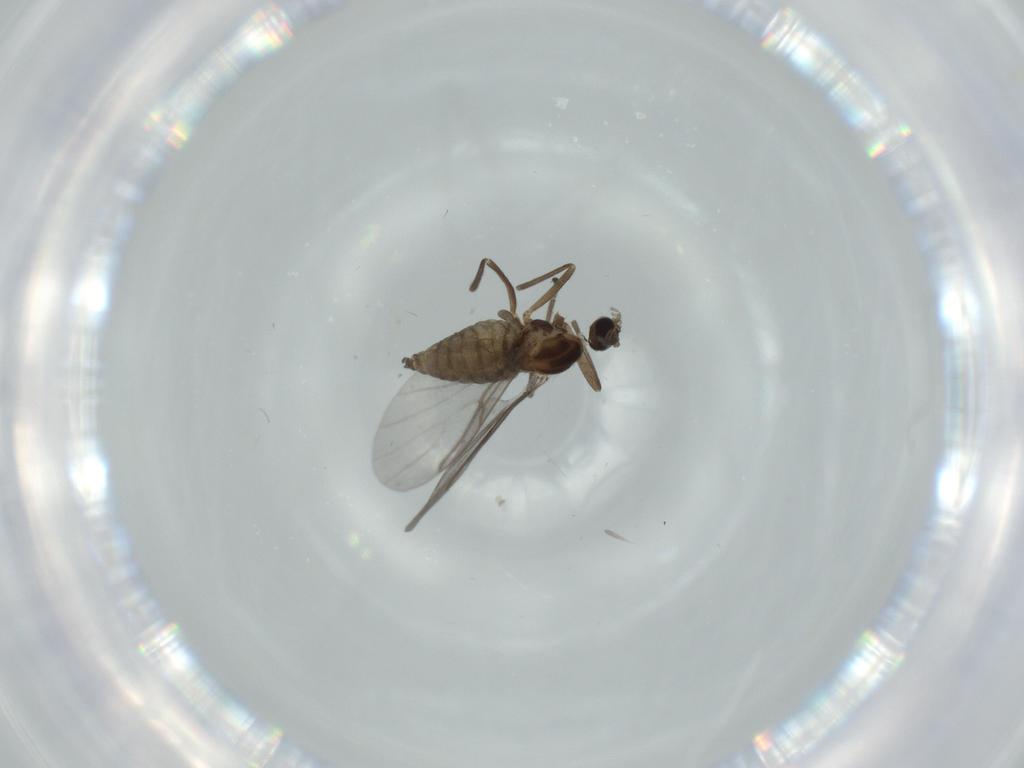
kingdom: Animalia
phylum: Arthropoda
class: Insecta
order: Diptera
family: Cecidomyiidae
